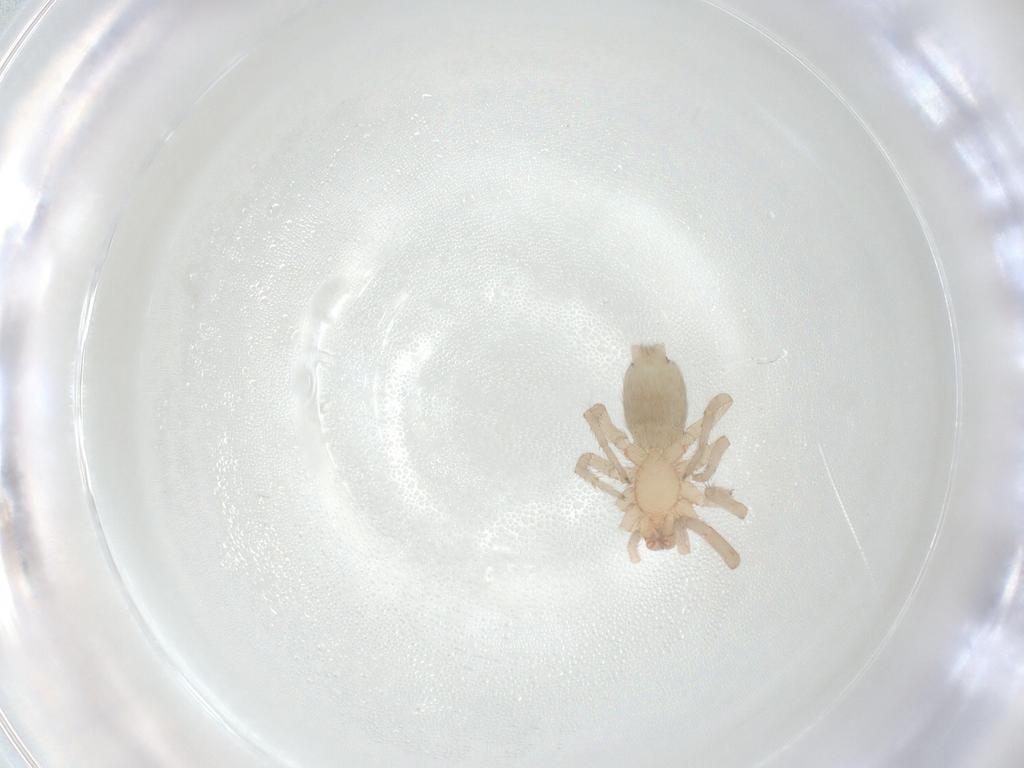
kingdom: Animalia
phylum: Arthropoda
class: Arachnida
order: Araneae
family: Gnaphosidae
